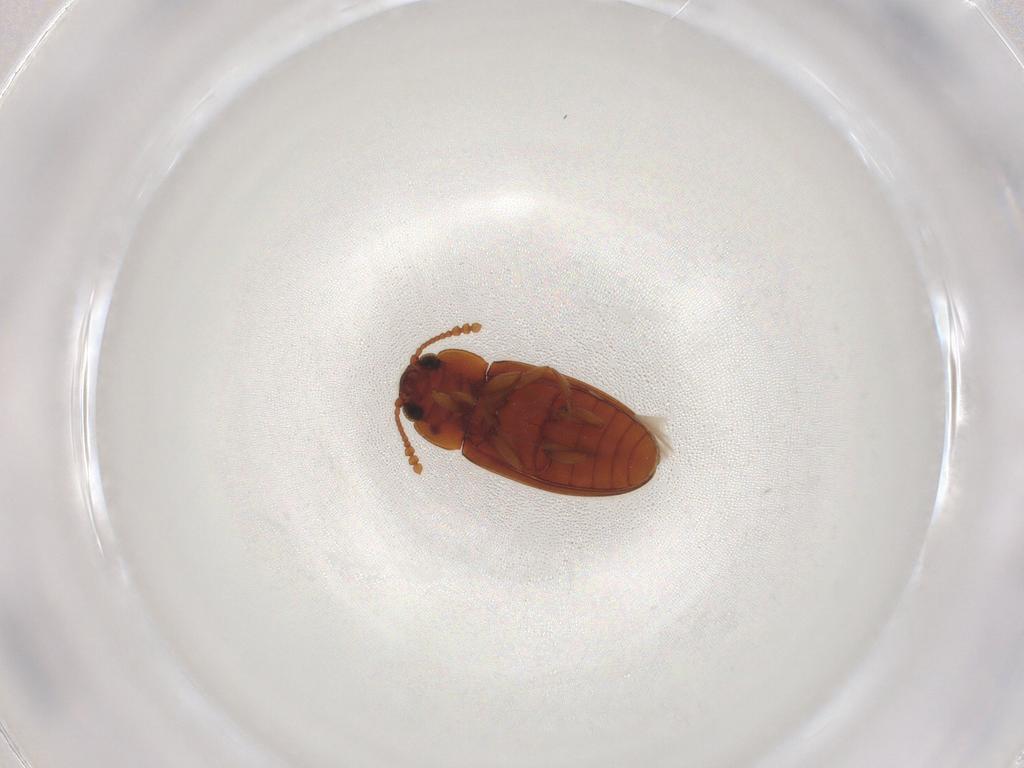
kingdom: Animalia
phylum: Arthropoda
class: Insecta
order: Coleoptera
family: Erotylidae
